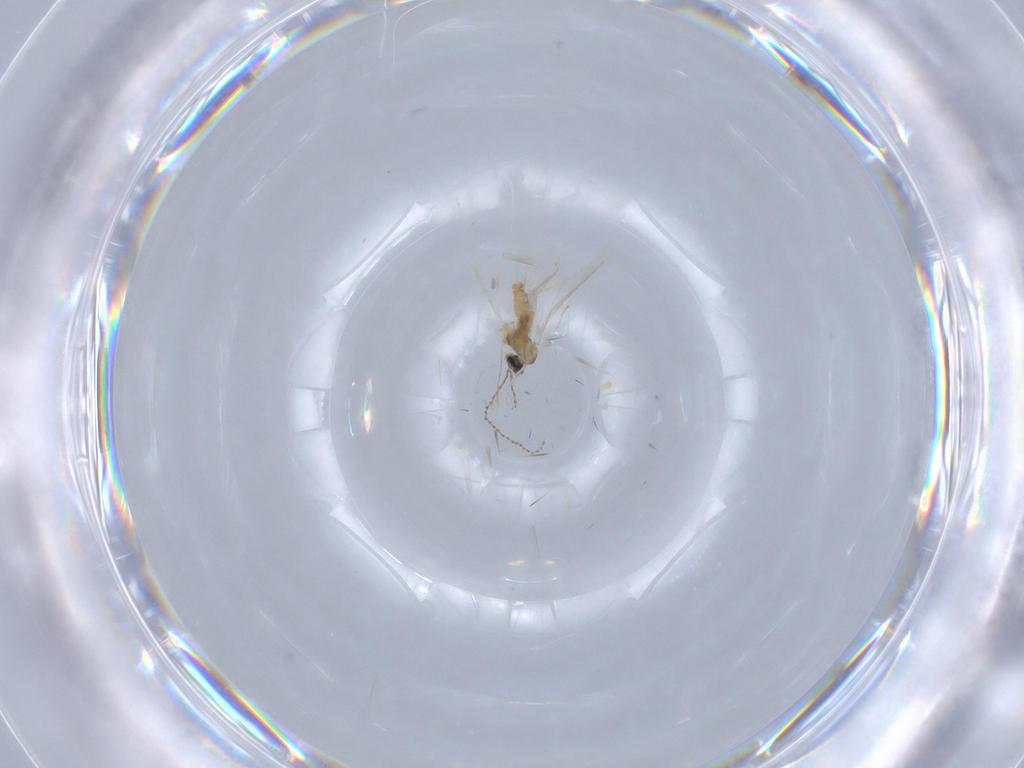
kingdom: Animalia
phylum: Arthropoda
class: Insecta
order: Diptera
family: Cecidomyiidae
